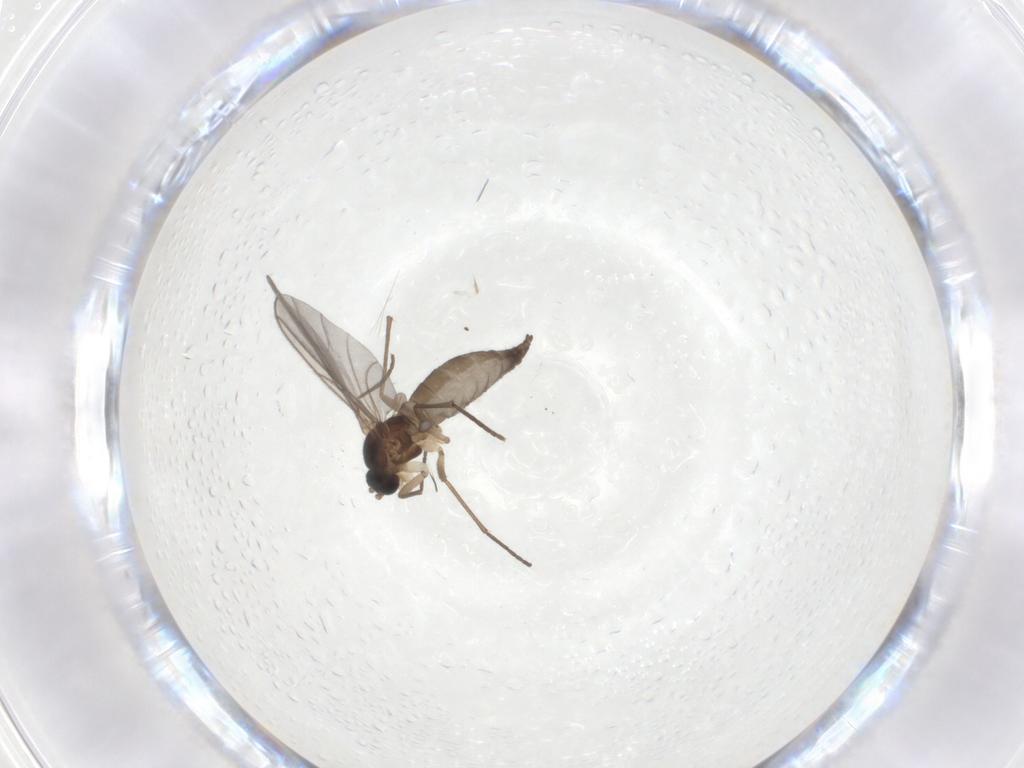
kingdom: Animalia
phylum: Arthropoda
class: Insecta
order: Diptera
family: Sciaridae
